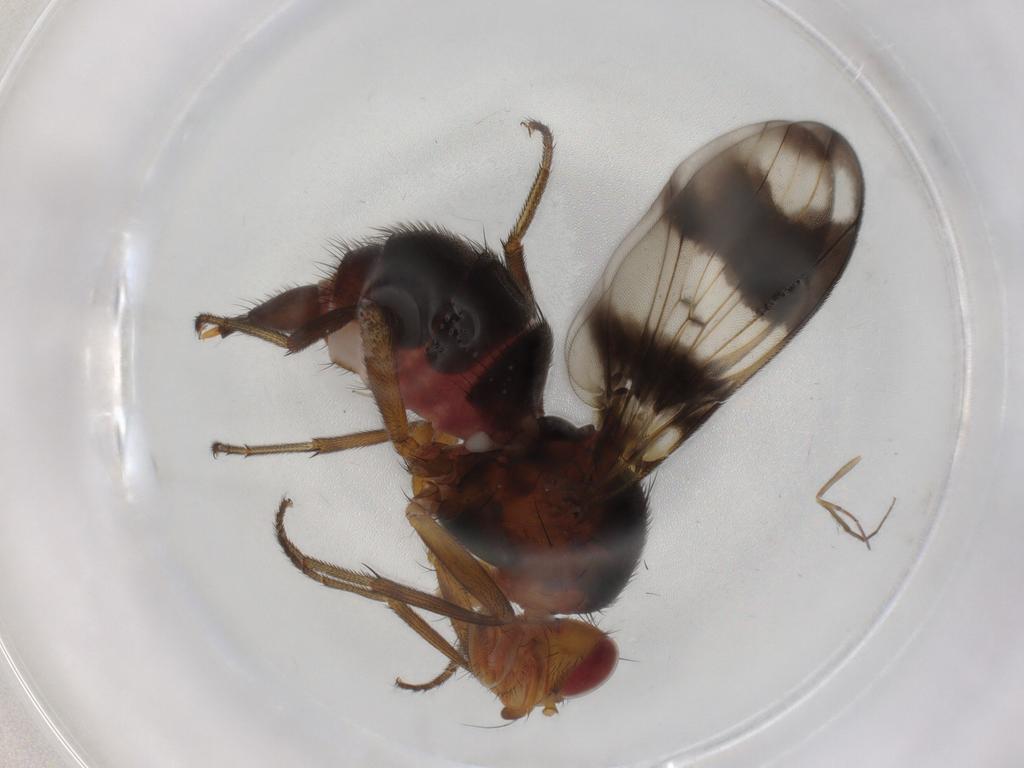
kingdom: Animalia
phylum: Arthropoda
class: Insecta
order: Diptera
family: Richardiidae
